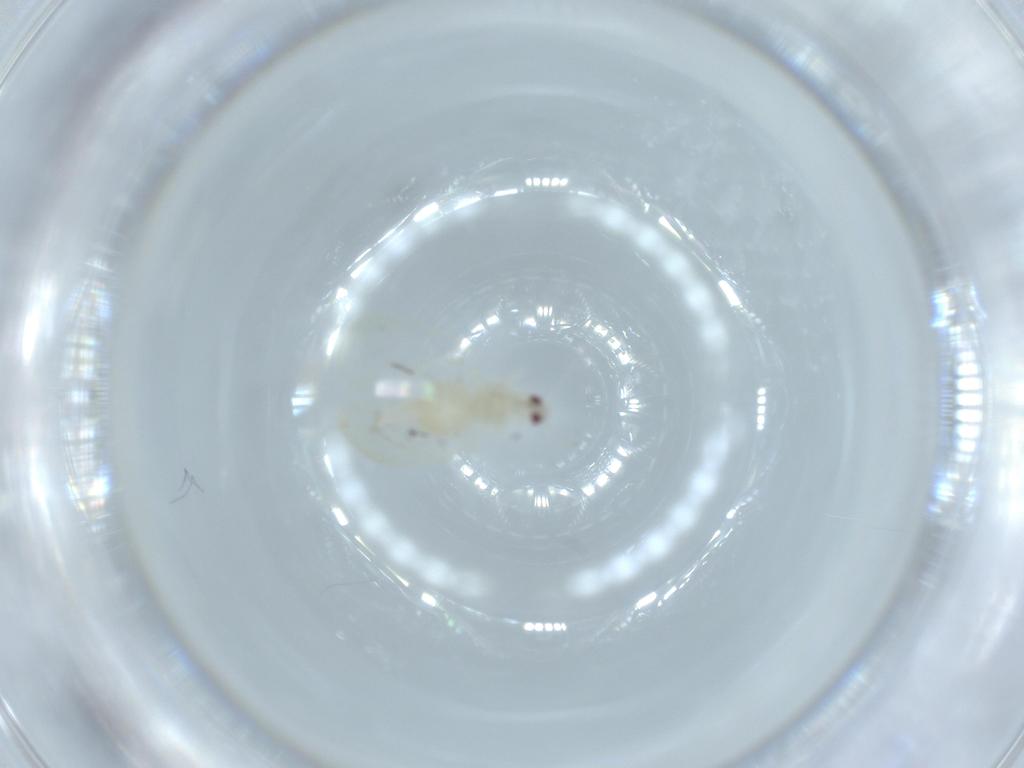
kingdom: Animalia
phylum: Arthropoda
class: Insecta
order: Hemiptera
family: Aleyrodidae
